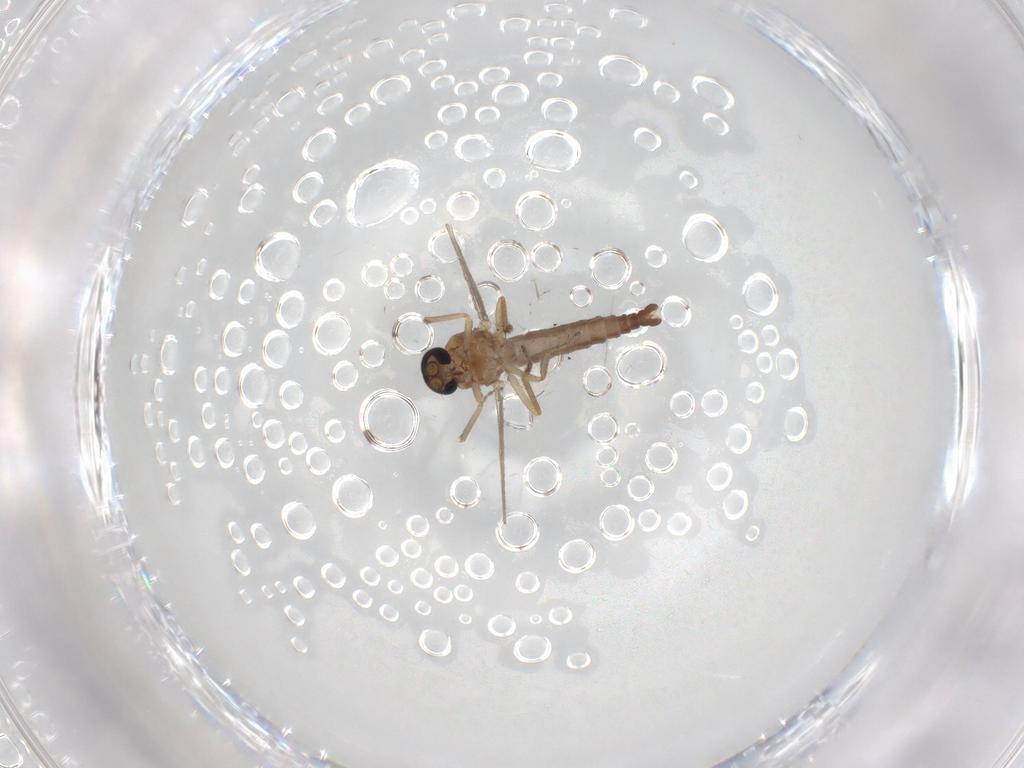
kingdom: Animalia
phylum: Arthropoda
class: Insecta
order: Diptera
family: Ceratopogonidae
